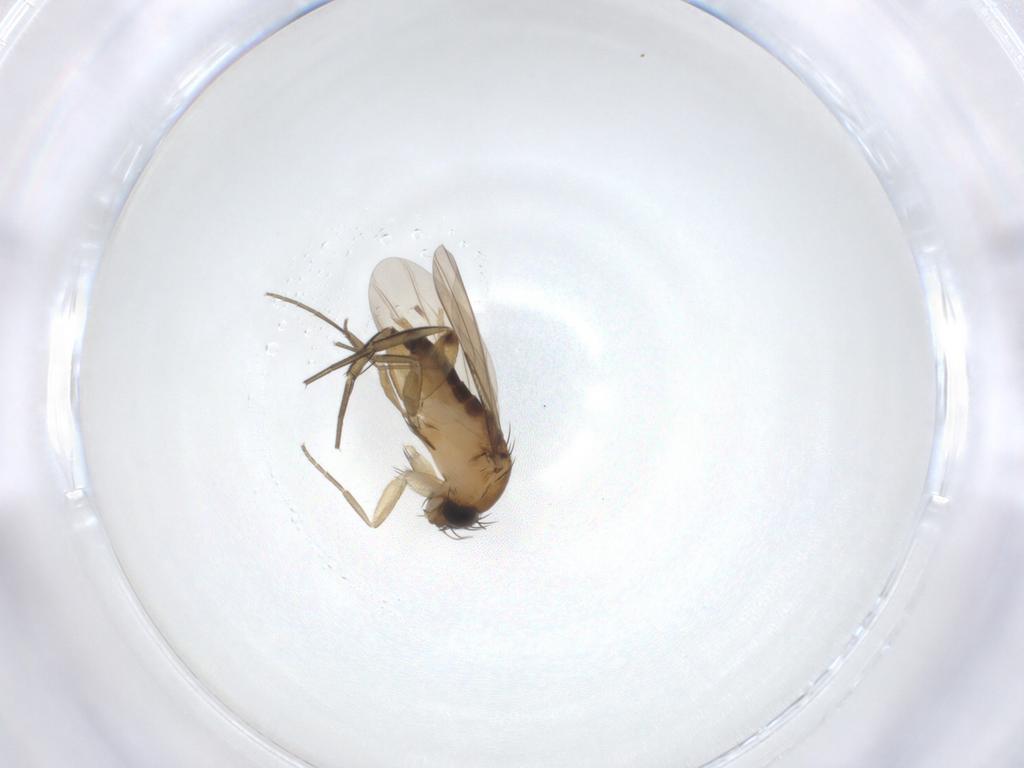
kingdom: Animalia
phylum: Arthropoda
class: Insecta
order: Diptera
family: Phoridae
